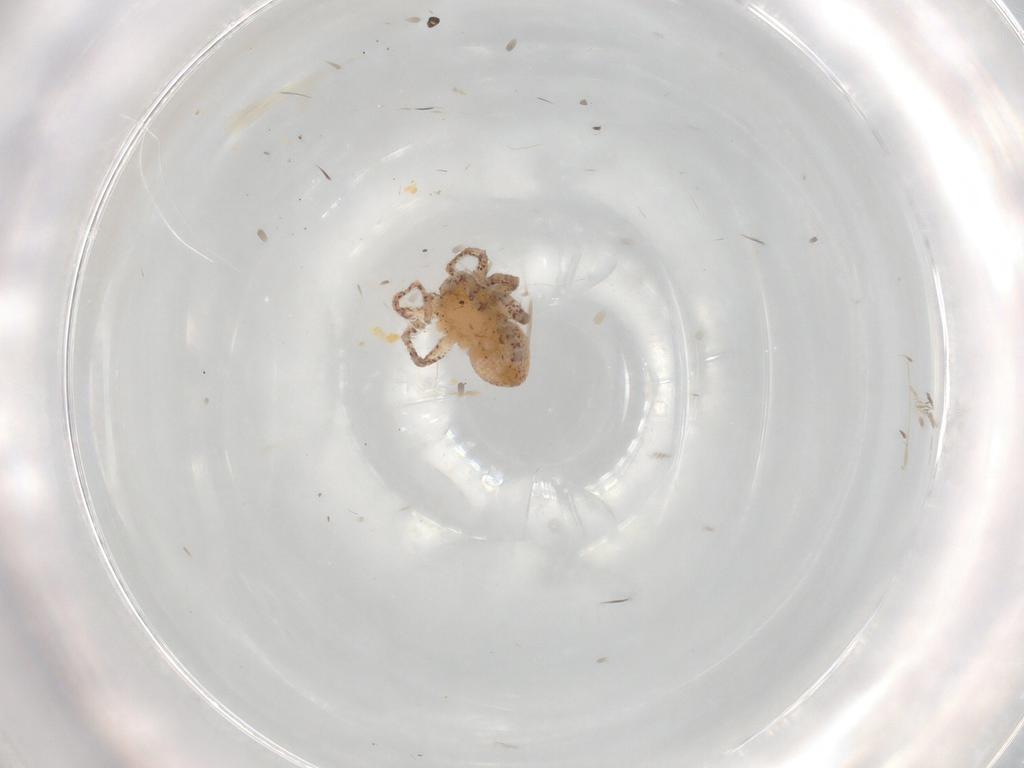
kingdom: Animalia
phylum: Arthropoda
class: Arachnida
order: Araneae
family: Philodromidae
